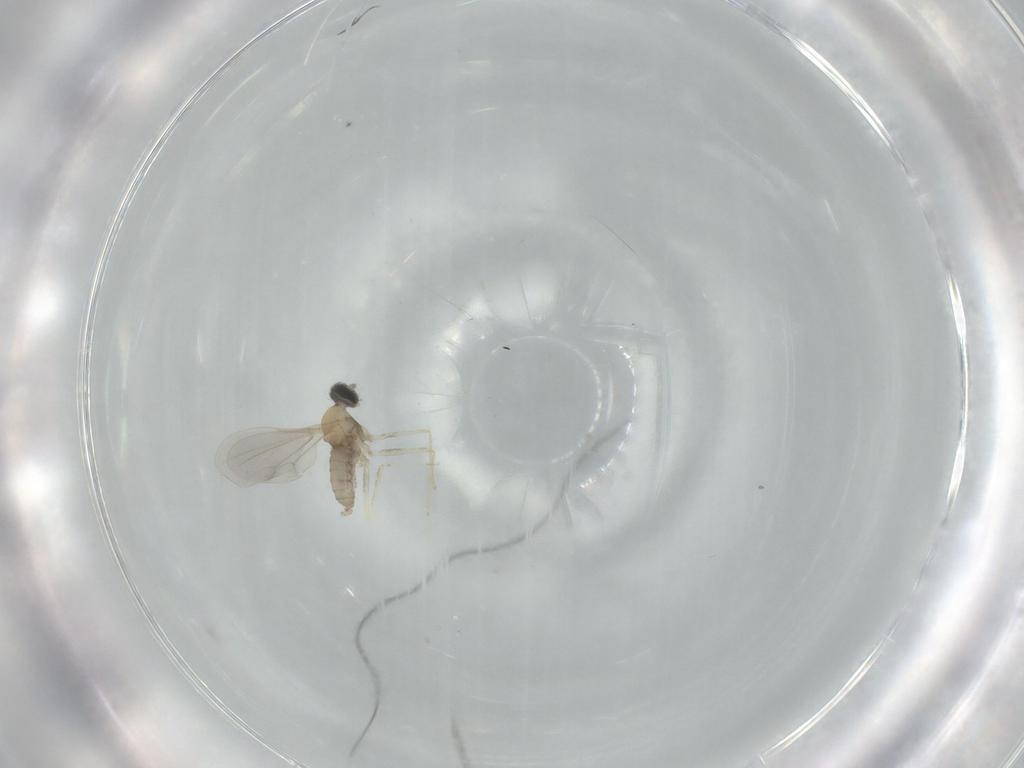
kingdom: Animalia
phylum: Arthropoda
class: Insecta
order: Diptera
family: Cecidomyiidae
